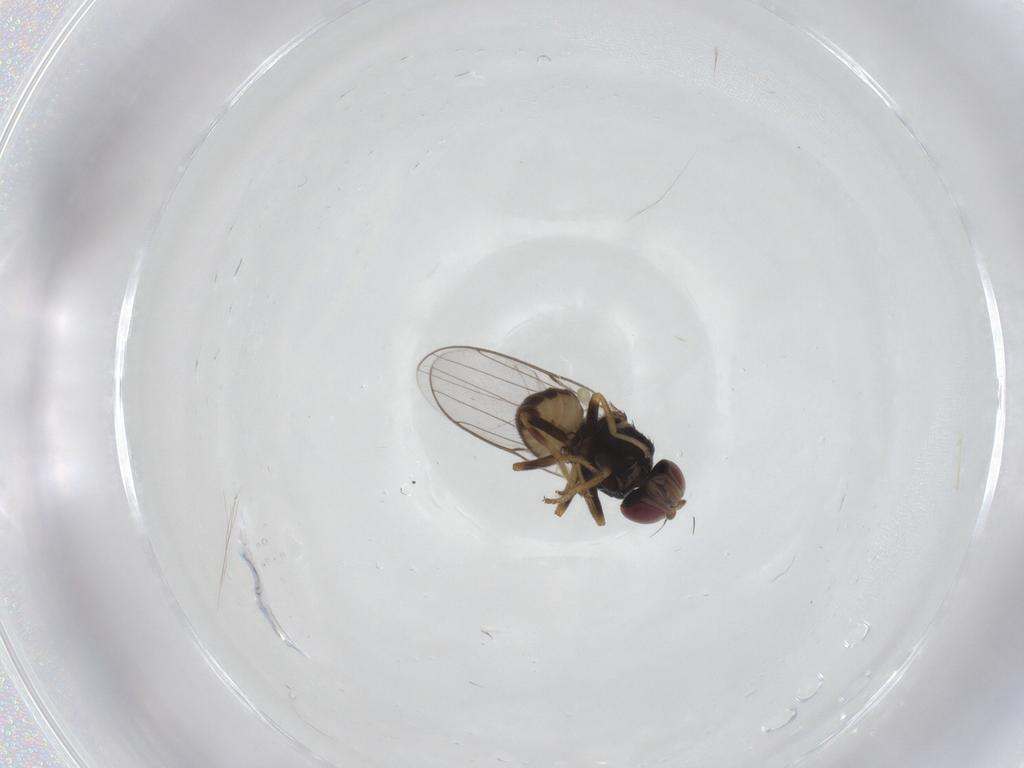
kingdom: Animalia
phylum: Arthropoda
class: Insecta
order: Diptera
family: Chloropidae
